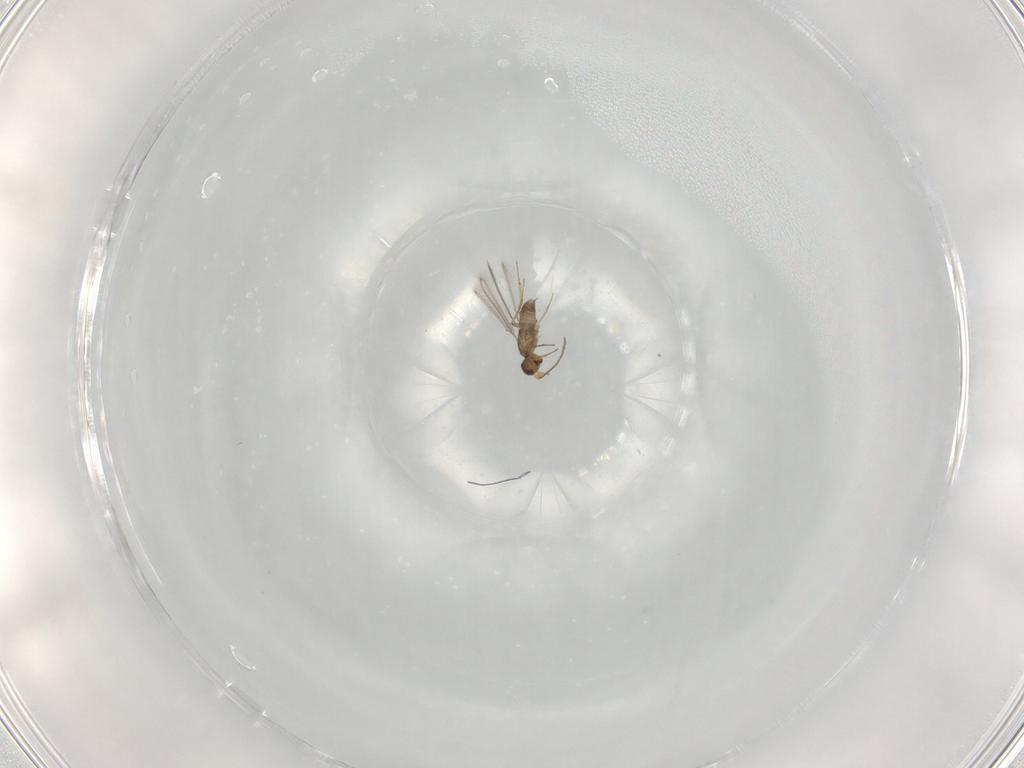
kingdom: Animalia
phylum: Arthropoda
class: Insecta
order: Hymenoptera
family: Mymaridae
